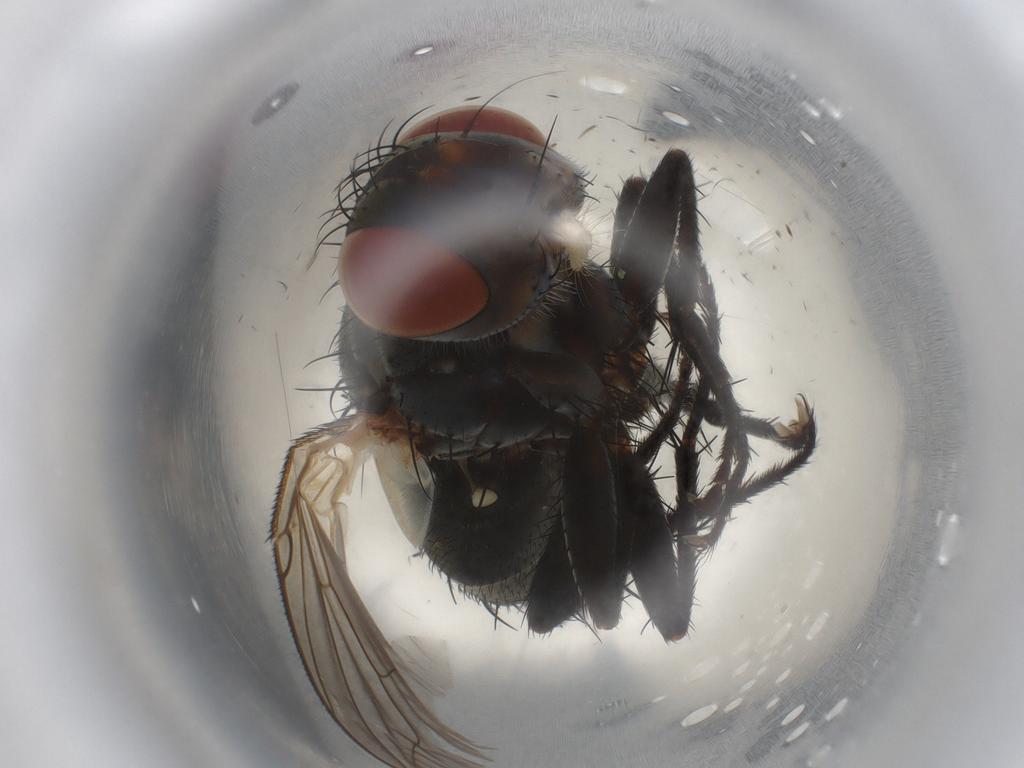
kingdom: Animalia
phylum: Arthropoda
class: Insecta
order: Diptera
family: Tachinidae
